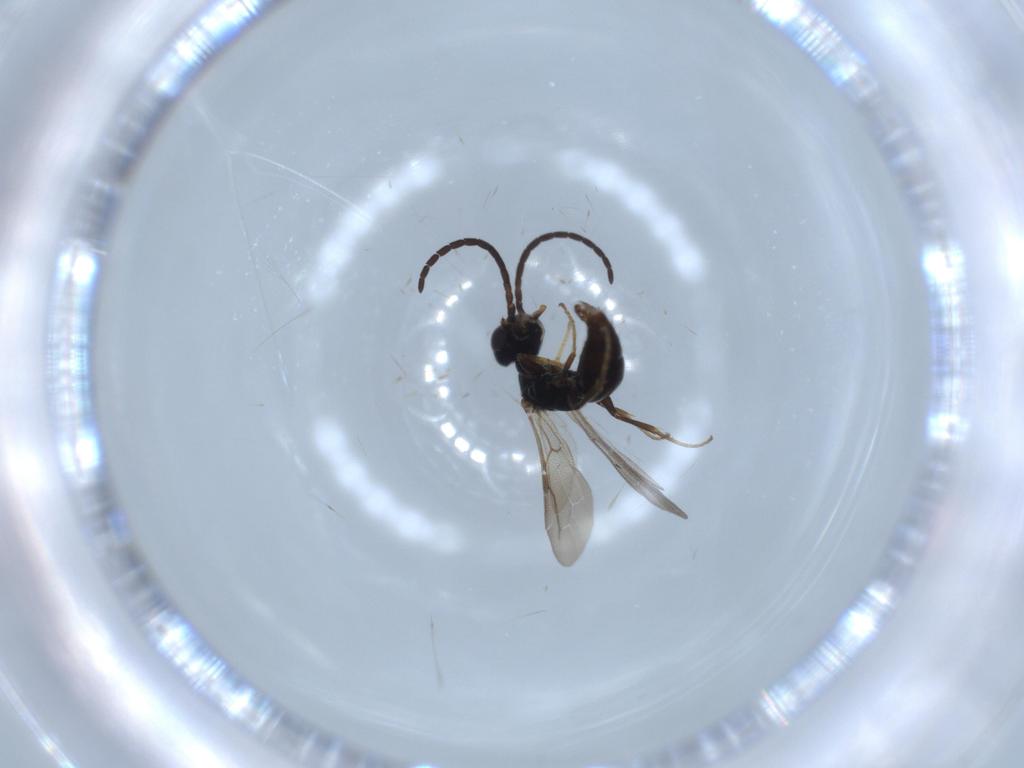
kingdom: Animalia
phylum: Arthropoda
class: Insecta
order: Hymenoptera
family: Bethylidae
